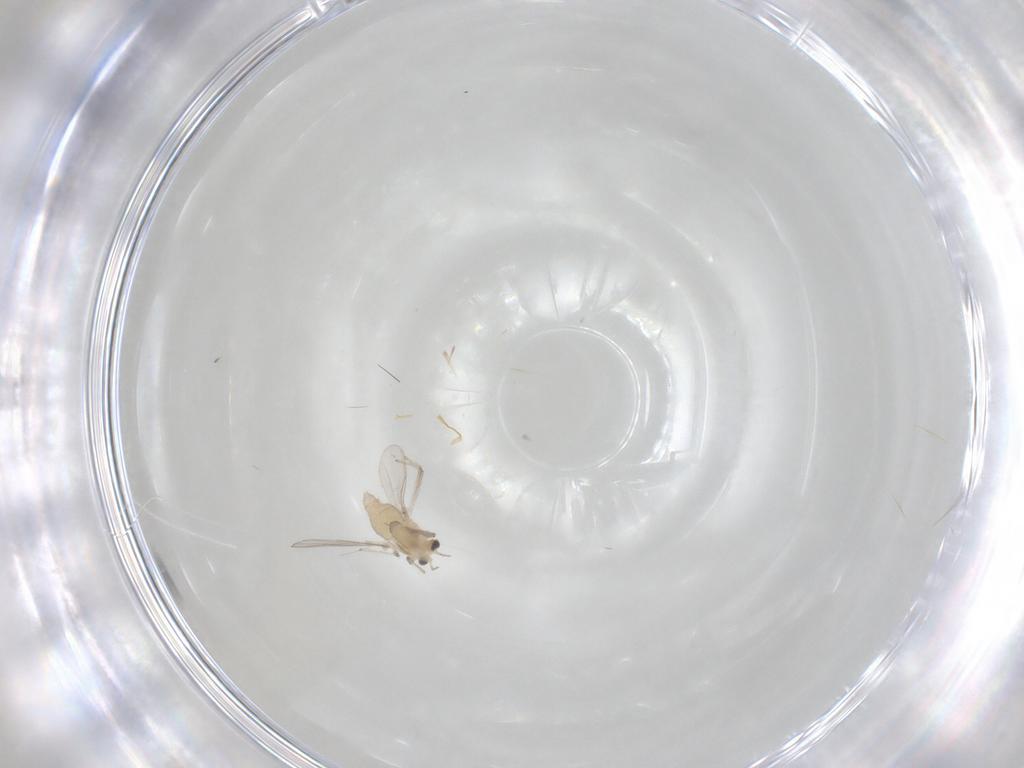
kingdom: Animalia
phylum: Arthropoda
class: Insecta
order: Diptera
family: Chironomidae
